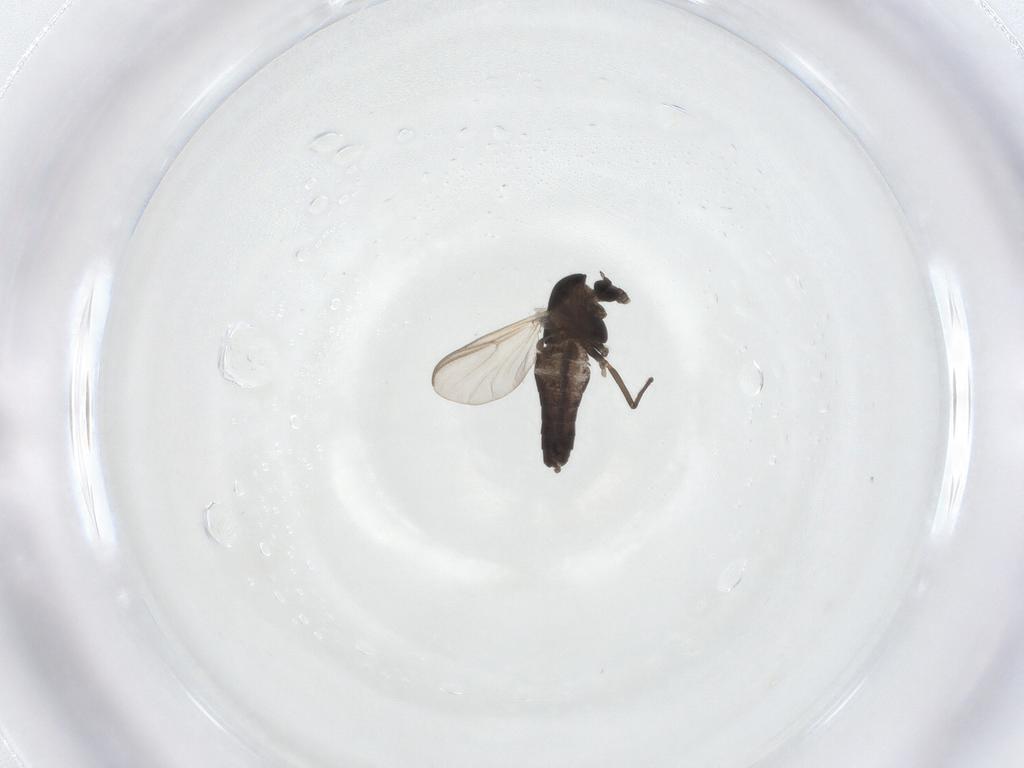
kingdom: Animalia
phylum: Arthropoda
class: Insecta
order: Diptera
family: Chironomidae
